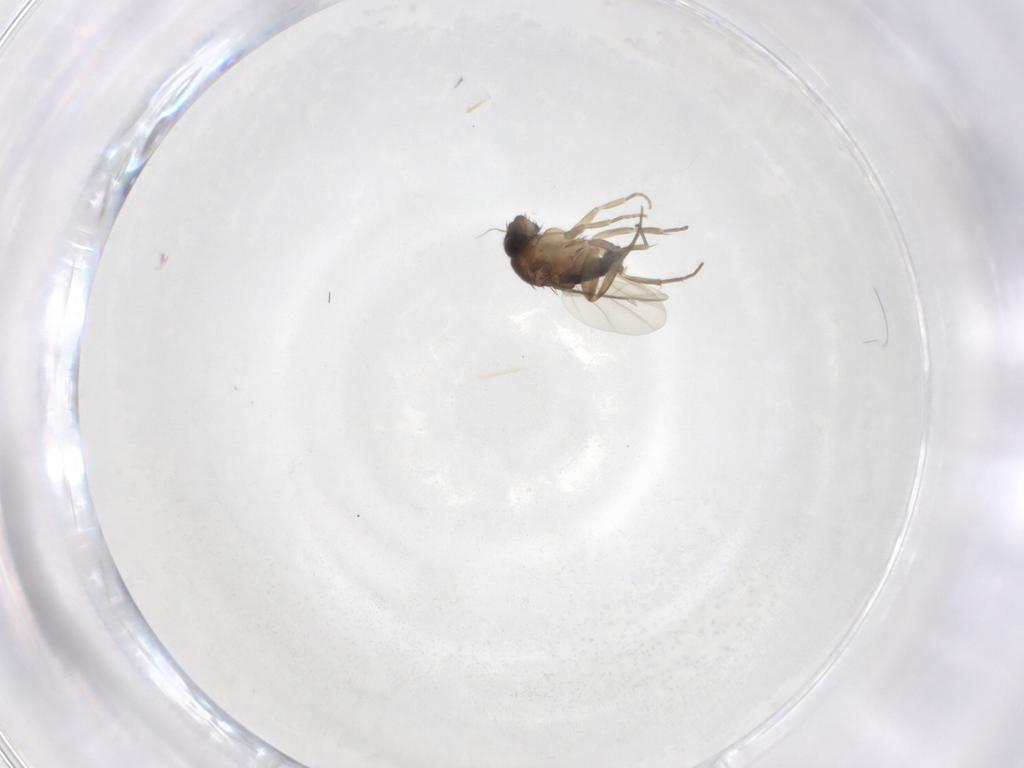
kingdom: Animalia
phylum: Arthropoda
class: Insecta
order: Diptera
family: Phoridae
